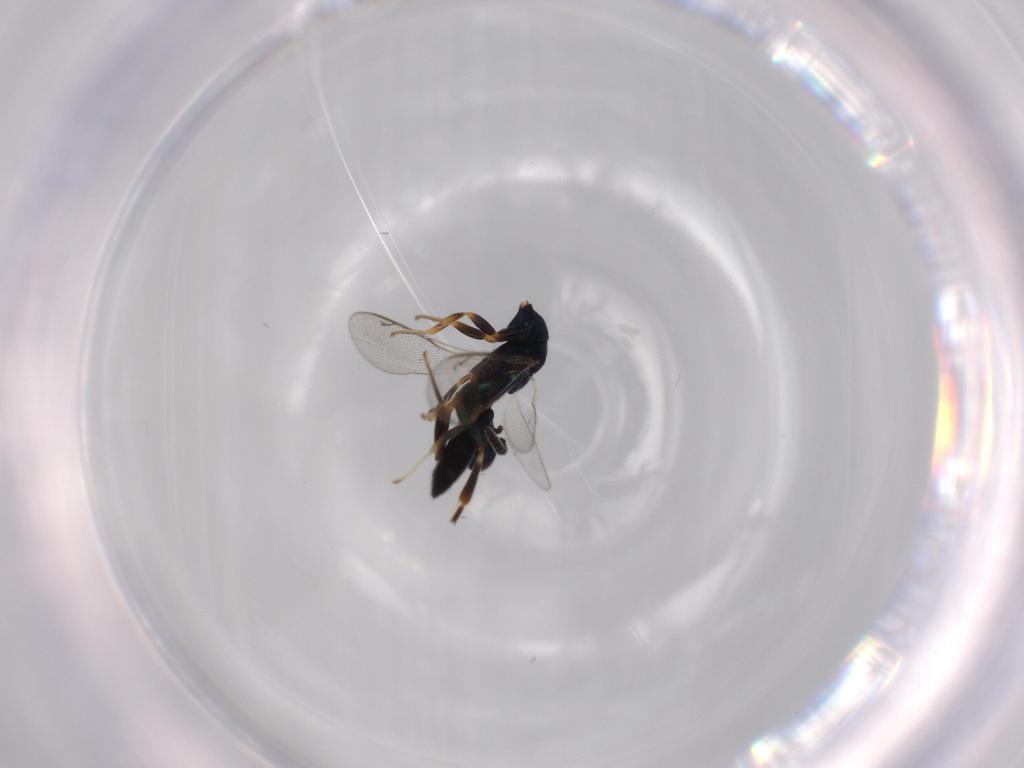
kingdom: Animalia
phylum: Arthropoda
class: Insecta
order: Hymenoptera
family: Cleonyminae
